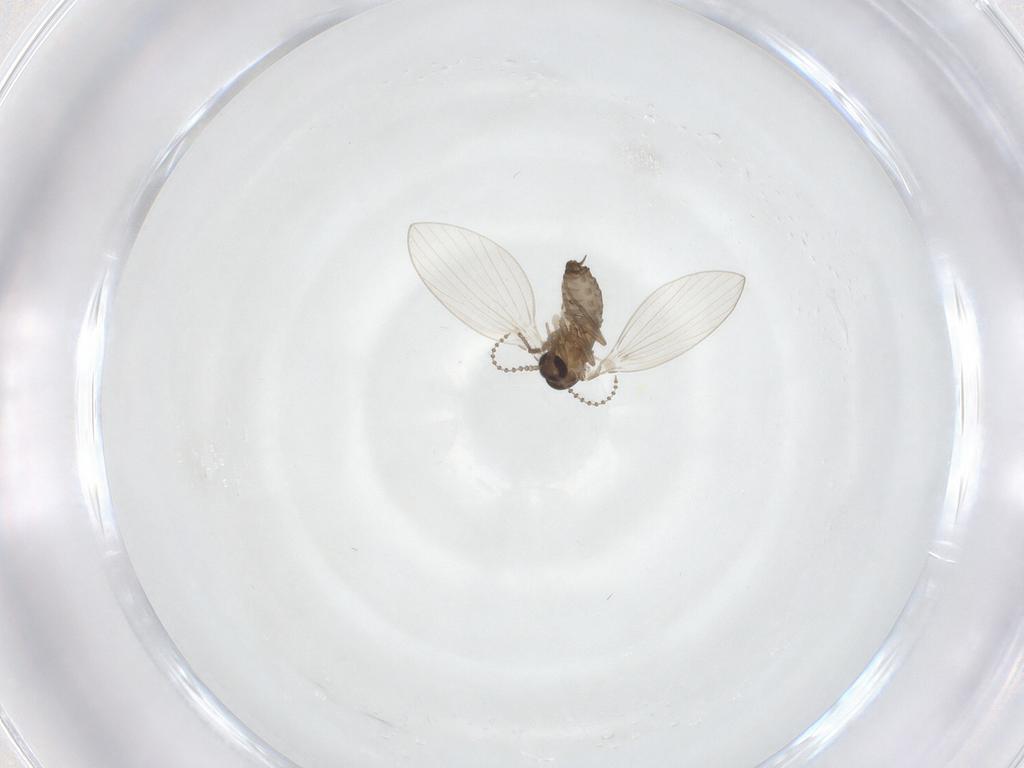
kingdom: Animalia
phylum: Arthropoda
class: Insecta
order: Diptera
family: Psychodidae
